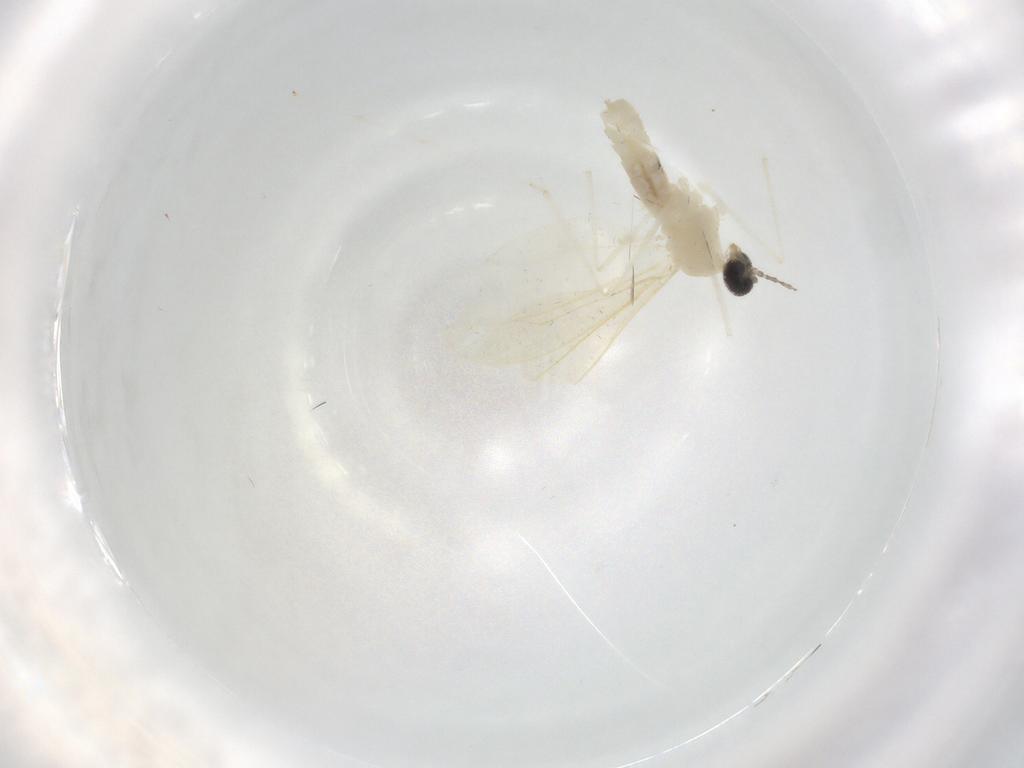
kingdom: Animalia
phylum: Arthropoda
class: Insecta
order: Diptera
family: Cecidomyiidae
